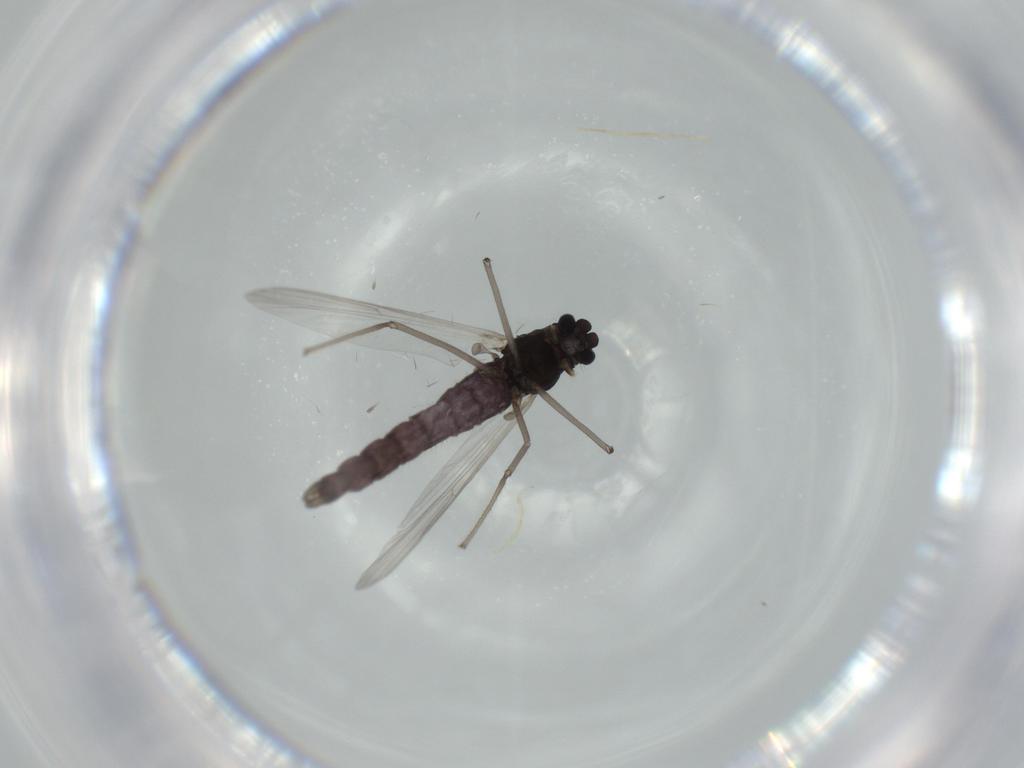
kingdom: Animalia
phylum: Arthropoda
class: Insecta
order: Diptera
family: Chironomidae
